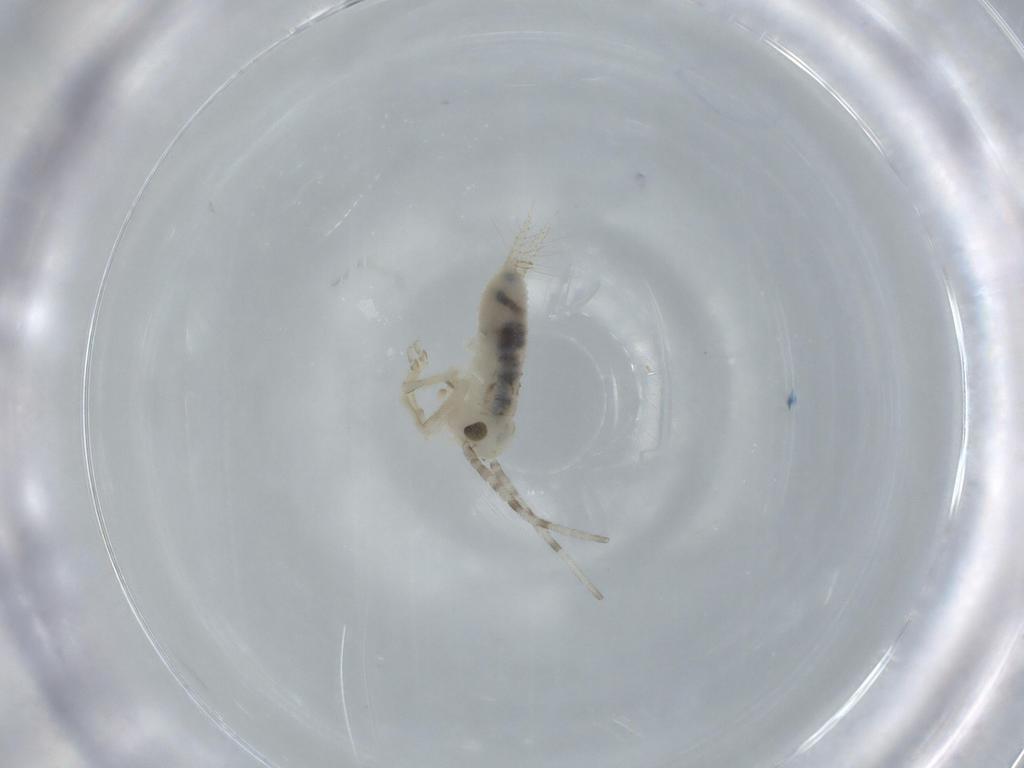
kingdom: Animalia
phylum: Arthropoda
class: Insecta
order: Orthoptera
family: Trigonidiidae
